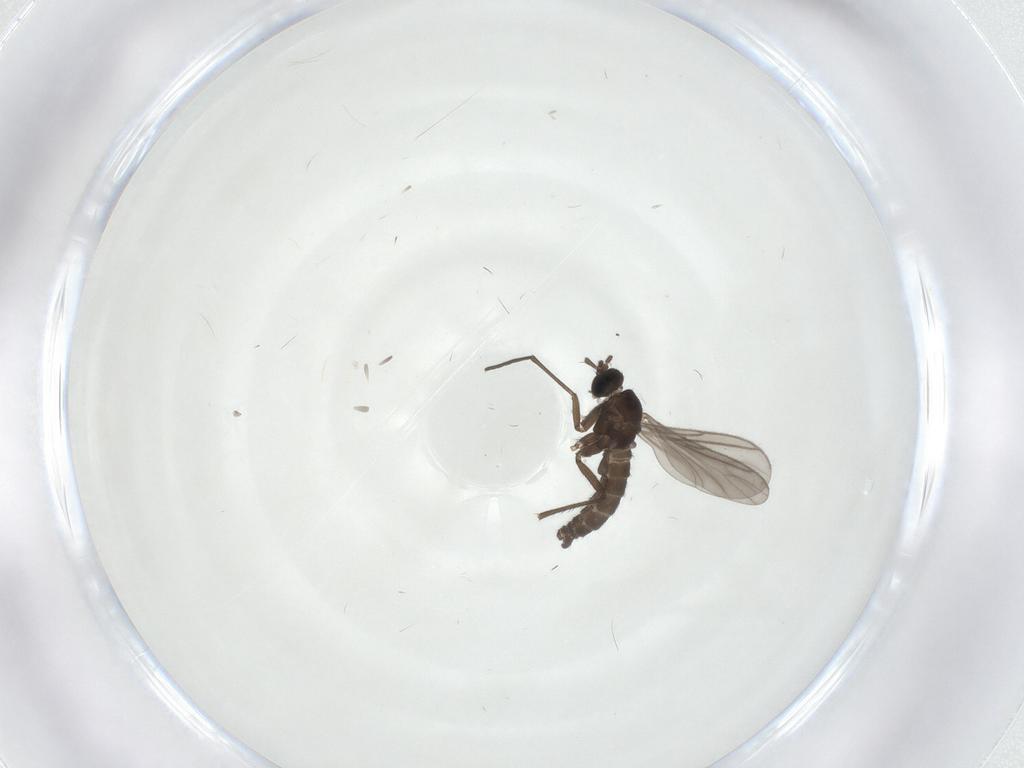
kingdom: Animalia
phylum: Arthropoda
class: Insecta
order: Diptera
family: Sciaridae
